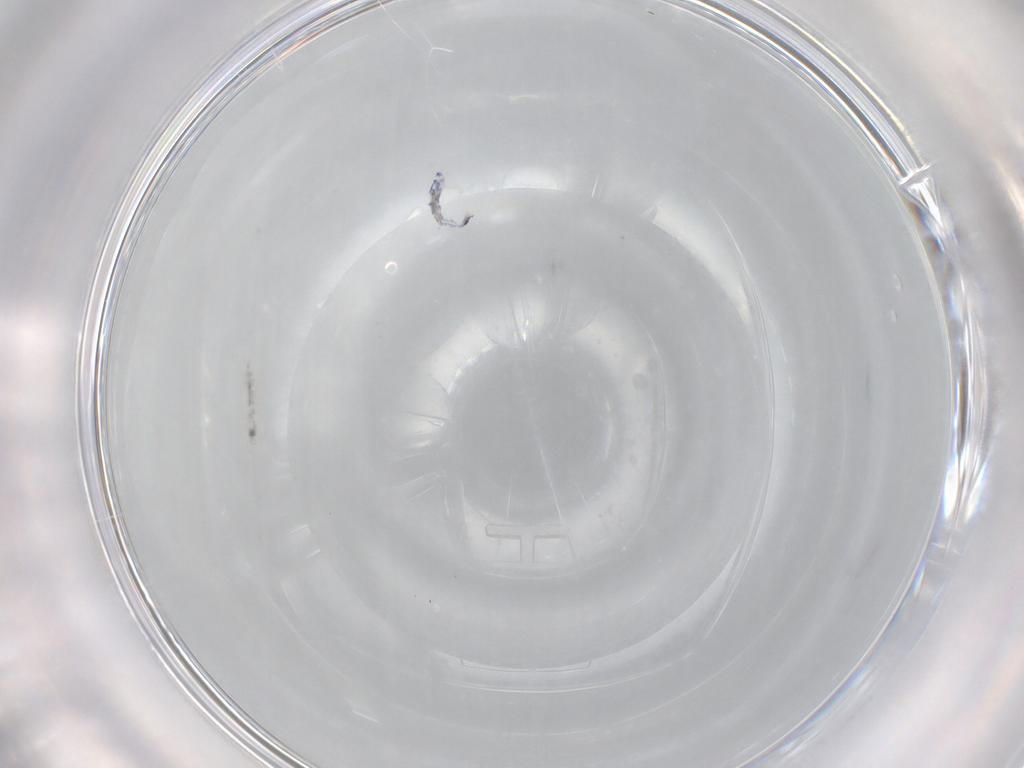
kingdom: Animalia
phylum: Arthropoda
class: Collembola
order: Entomobryomorpha
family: Entomobryidae
